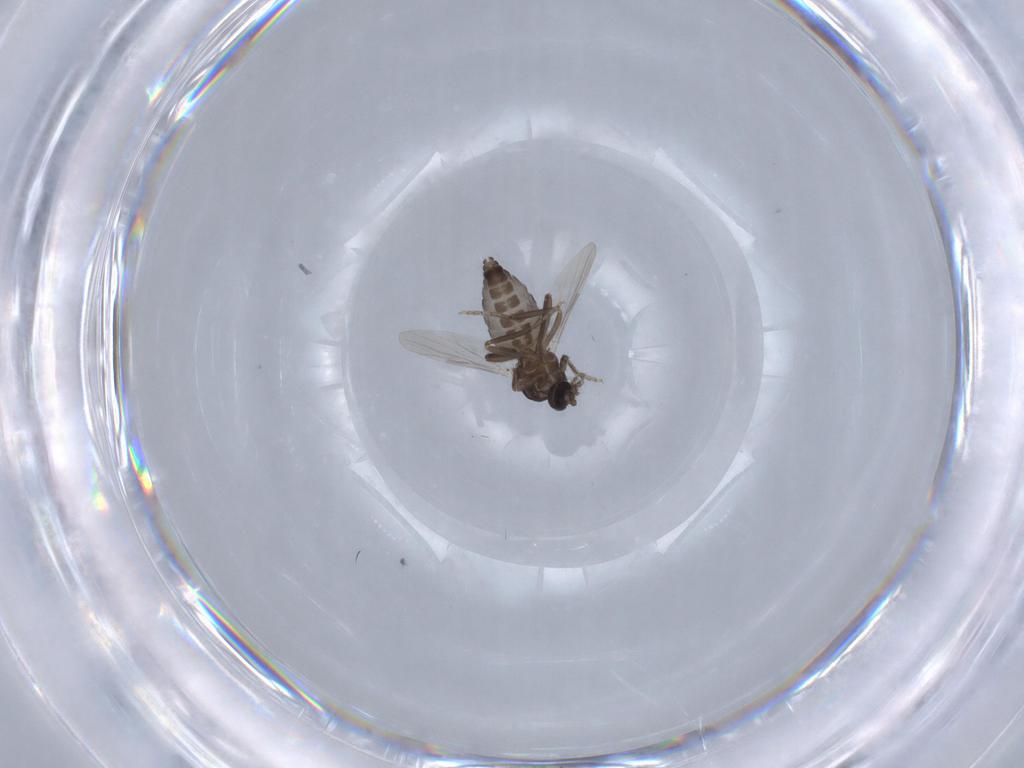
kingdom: Animalia
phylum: Arthropoda
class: Insecta
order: Diptera
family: Ceratopogonidae
